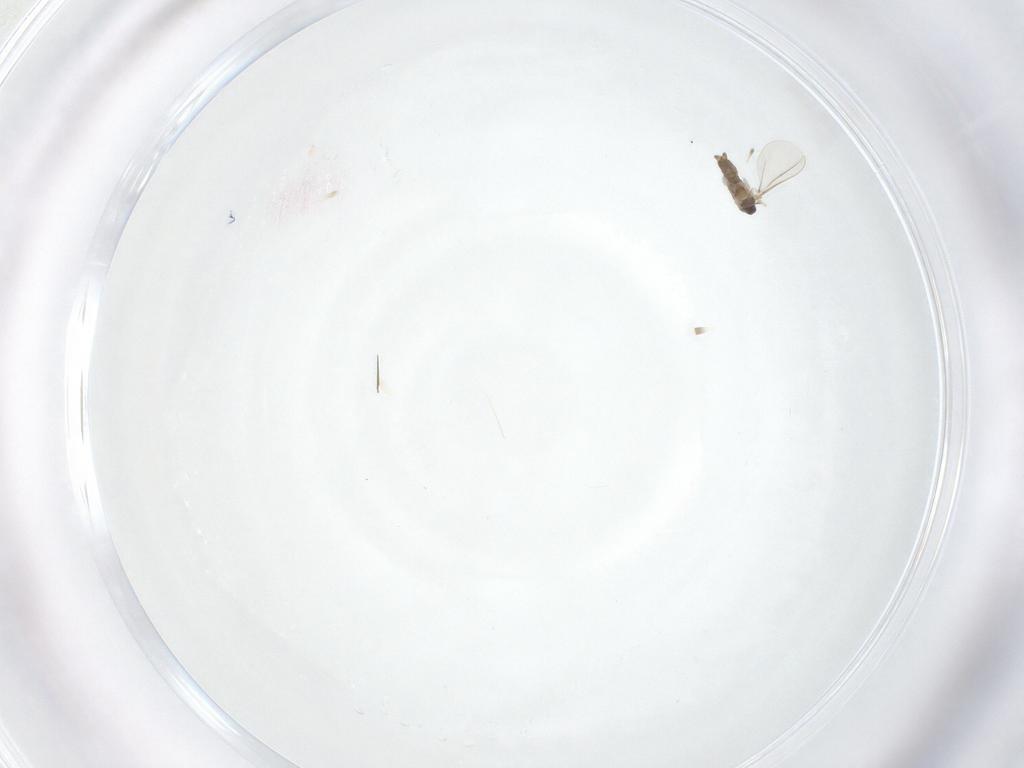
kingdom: Animalia
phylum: Arthropoda
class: Insecta
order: Diptera
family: Cecidomyiidae
